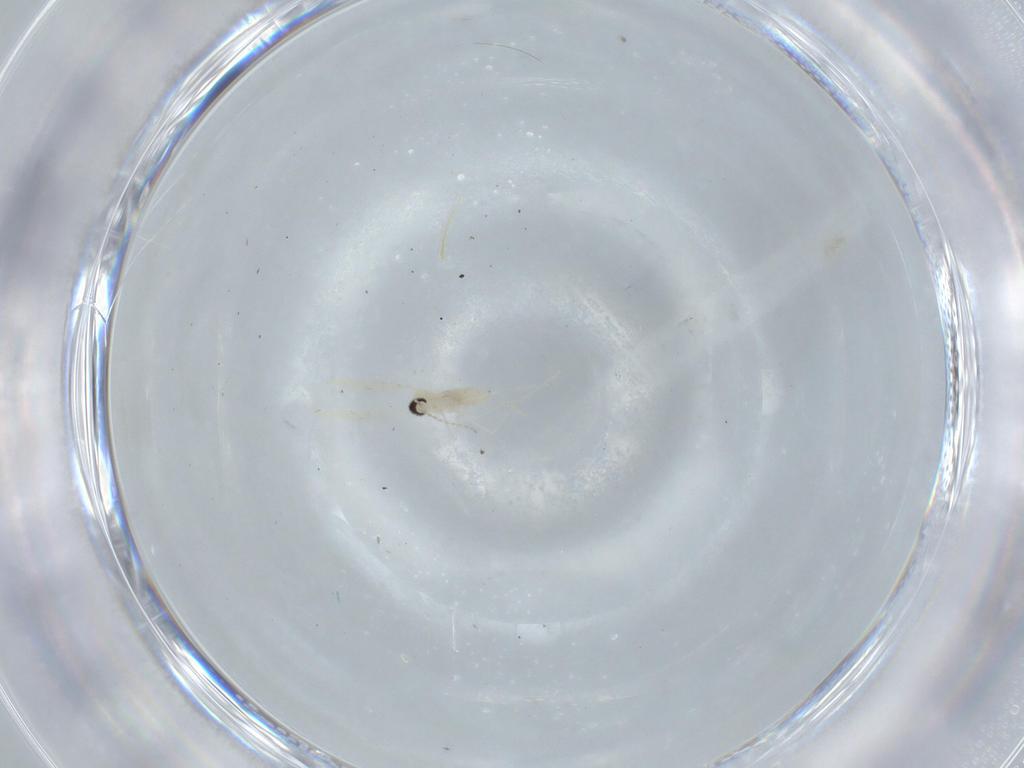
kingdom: Animalia
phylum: Arthropoda
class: Insecta
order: Diptera
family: Cecidomyiidae
